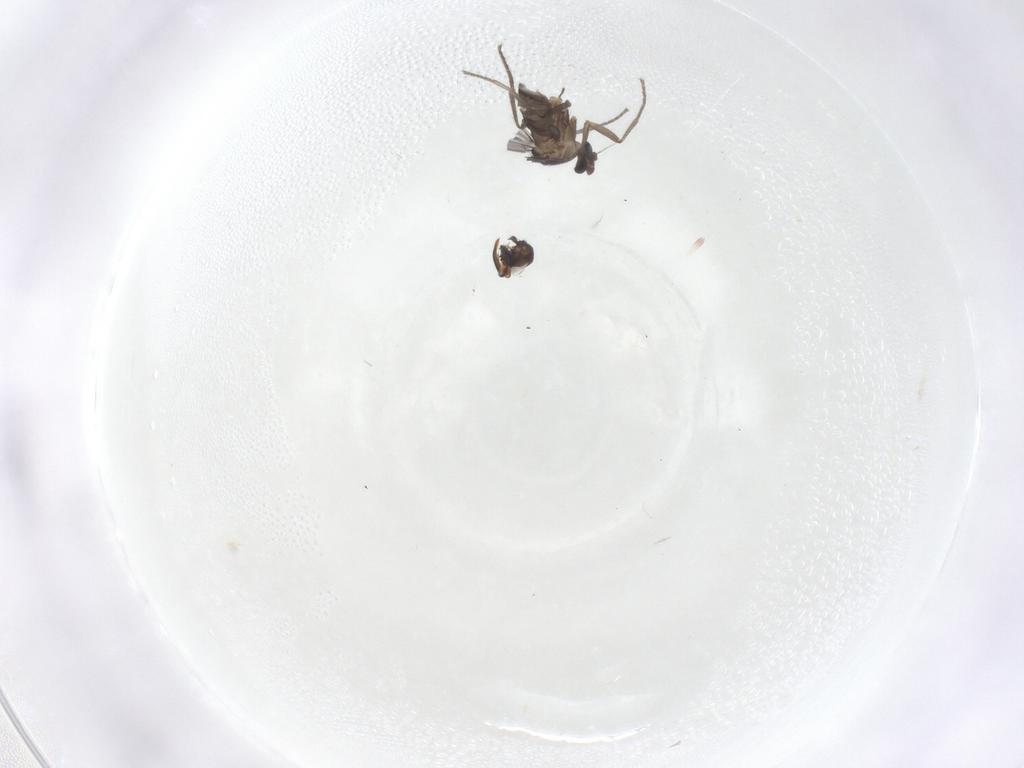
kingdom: Animalia
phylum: Arthropoda
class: Insecta
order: Diptera
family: Phoridae
